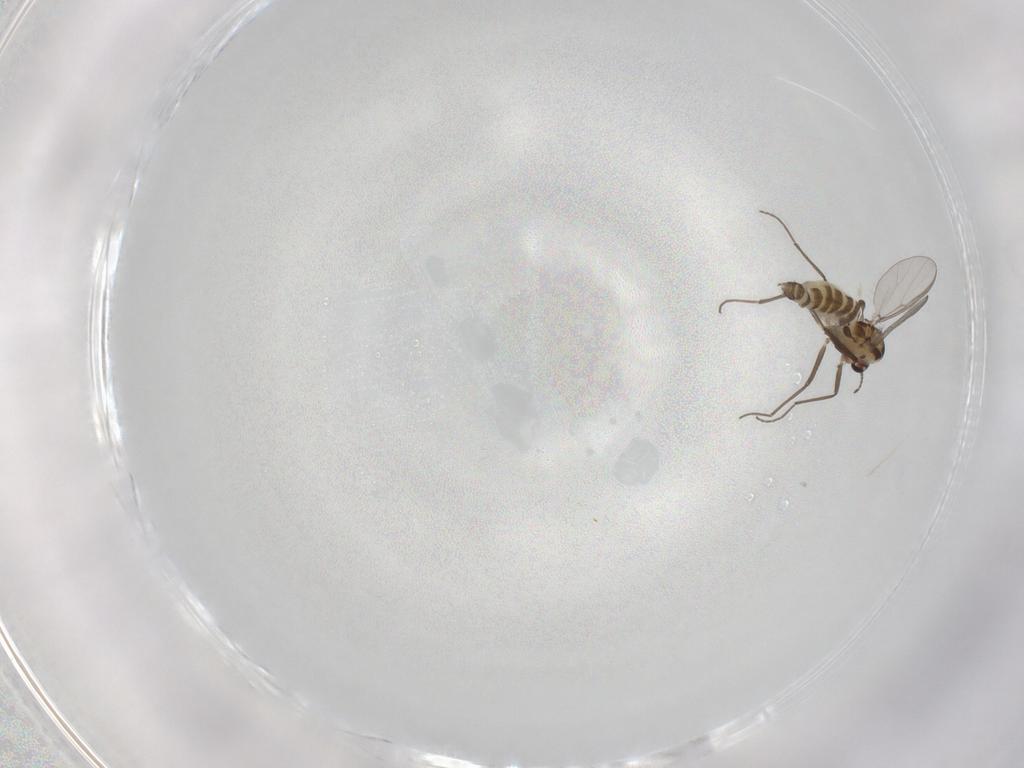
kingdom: Animalia
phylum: Arthropoda
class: Insecta
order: Diptera
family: Chironomidae
